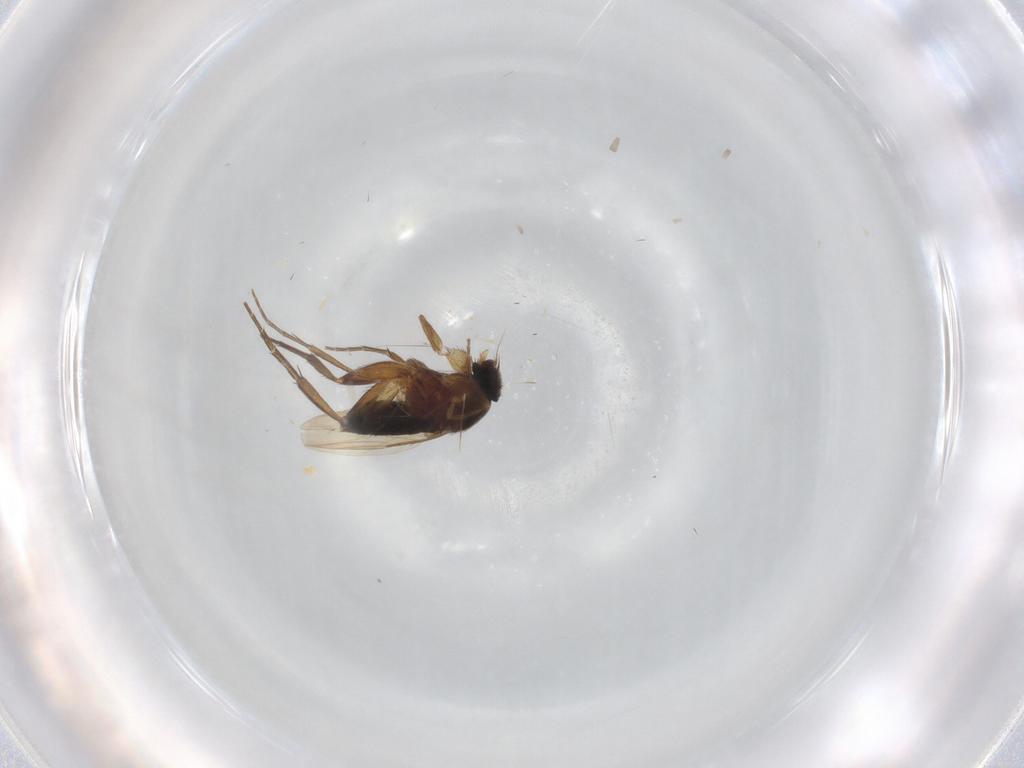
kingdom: Animalia
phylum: Arthropoda
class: Insecta
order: Diptera
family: Phoridae
